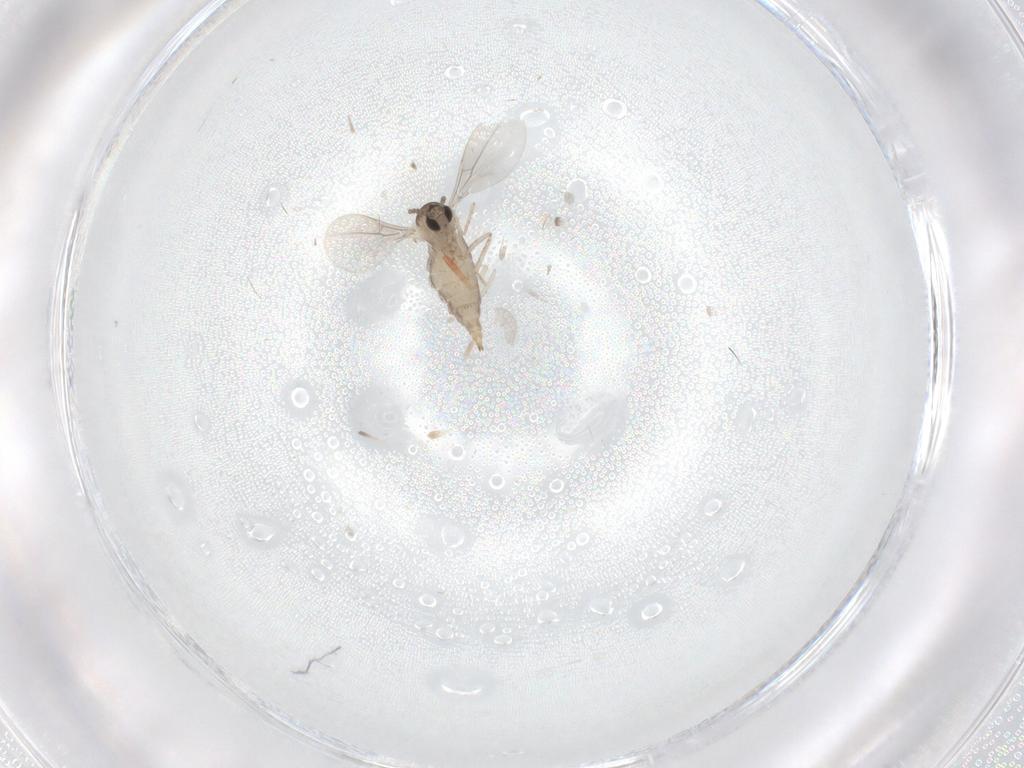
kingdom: Animalia
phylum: Arthropoda
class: Insecta
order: Diptera
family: Cecidomyiidae
